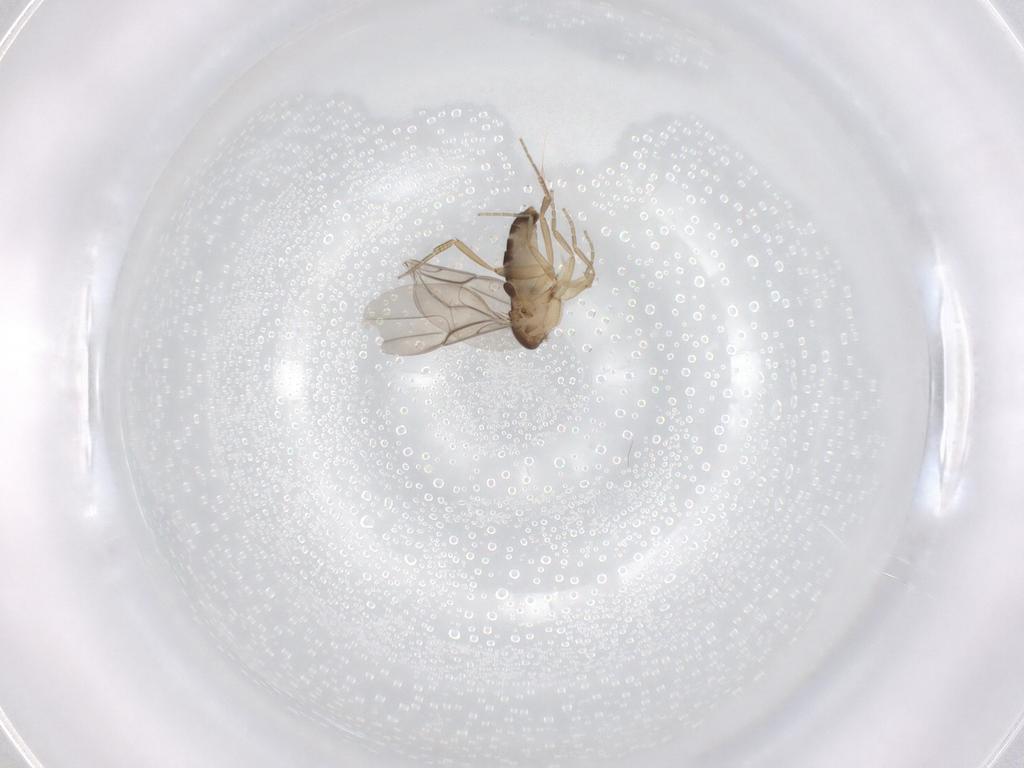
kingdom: Animalia
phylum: Arthropoda
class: Insecta
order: Diptera
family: Phoridae
